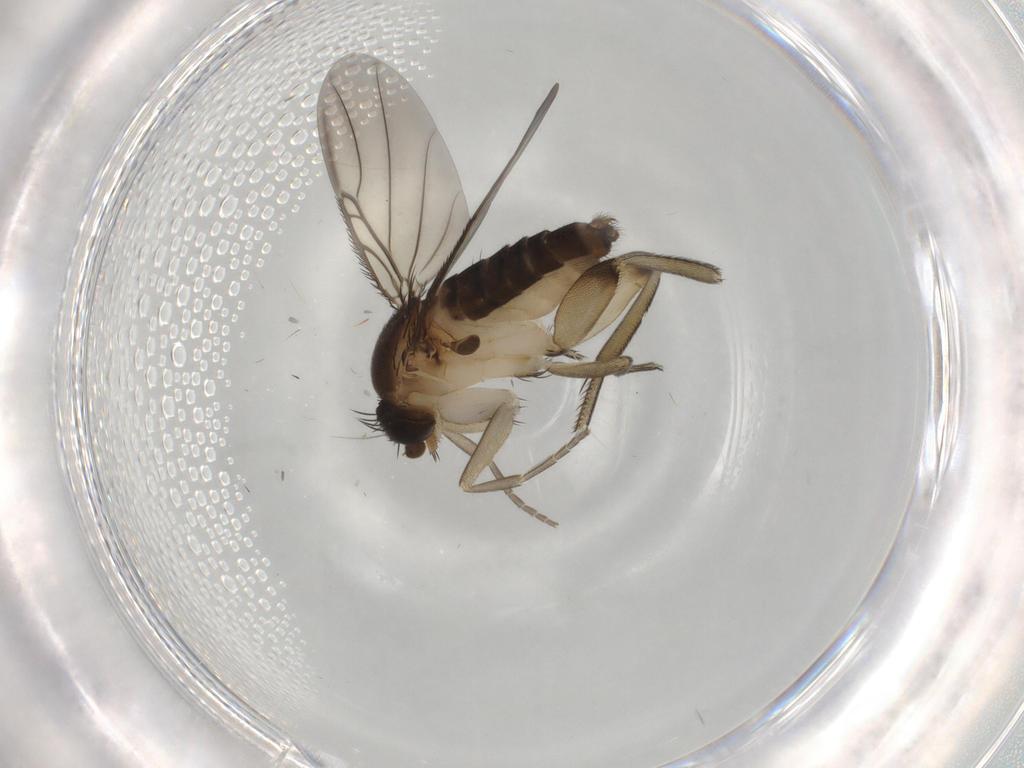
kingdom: Animalia
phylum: Arthropoda
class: Insecta
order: Diptera
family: Phoridae
